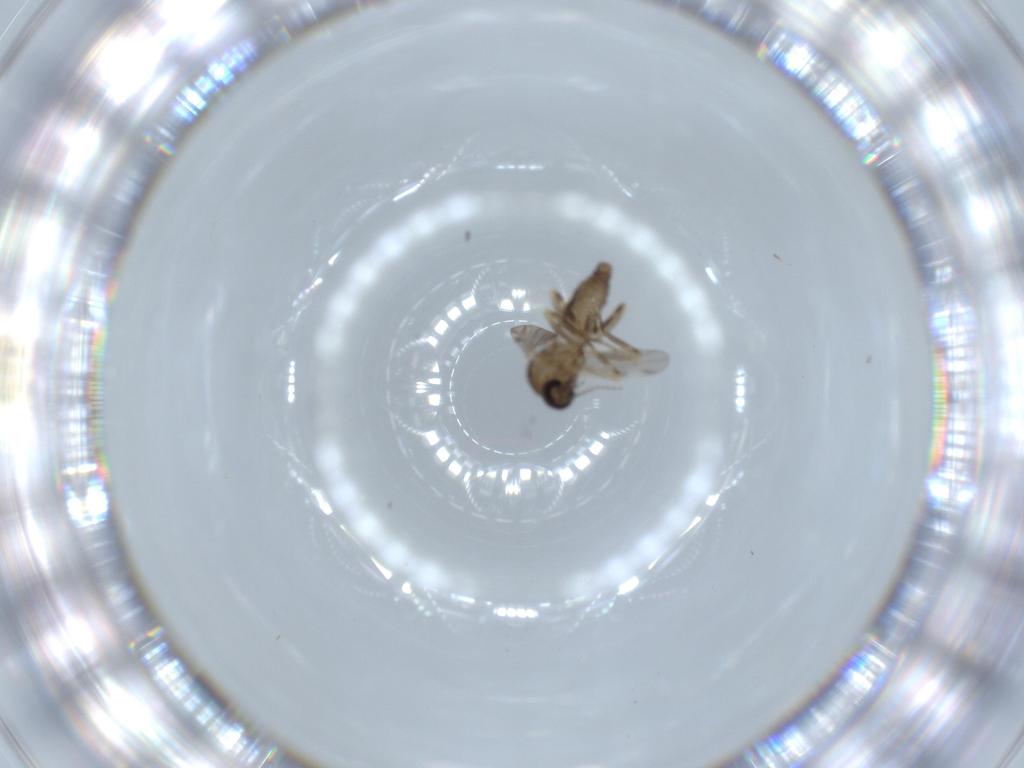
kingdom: Animalia
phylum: Arthropoda
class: Insecta
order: Diptera
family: Ceratopogonidae
